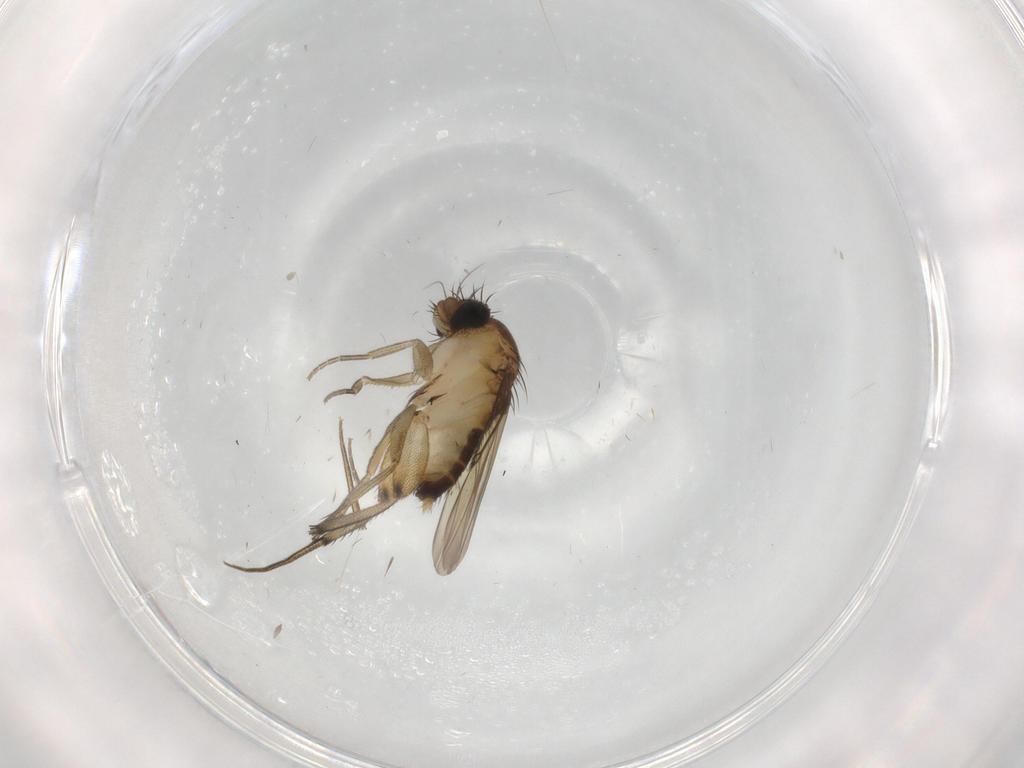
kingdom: Animalia
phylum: Arthropoda
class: Insecta
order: Diptera
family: Phoridae
